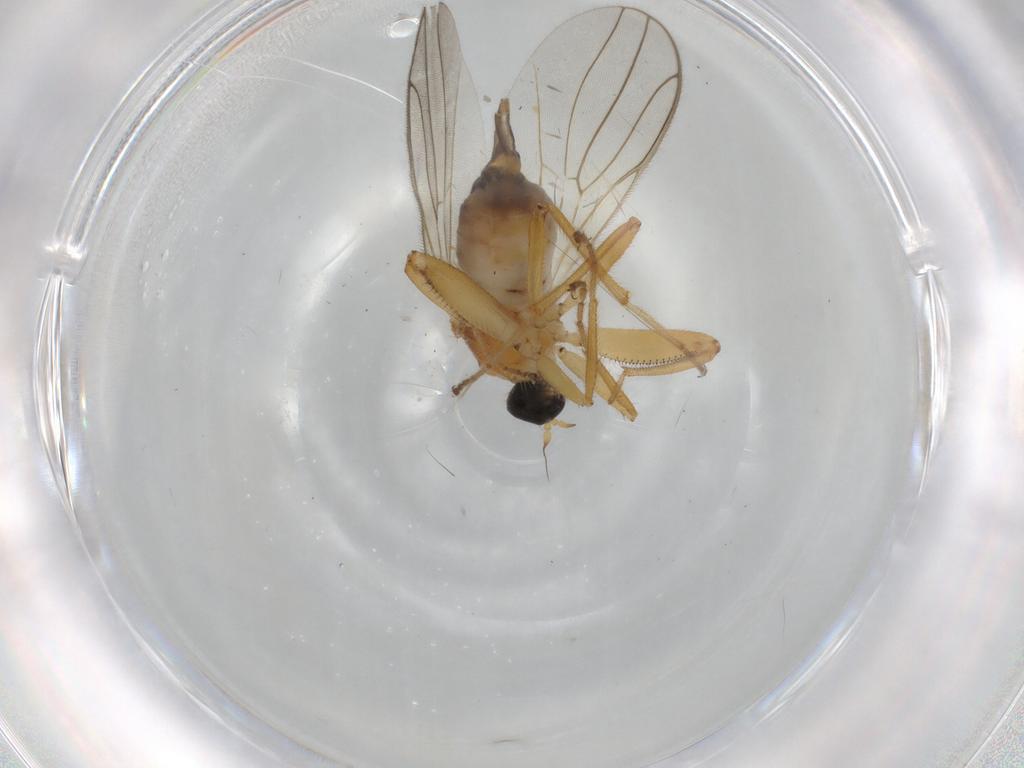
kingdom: Animalia
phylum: Arthropoda
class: Insecta
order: Diptera
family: Hybotidae
